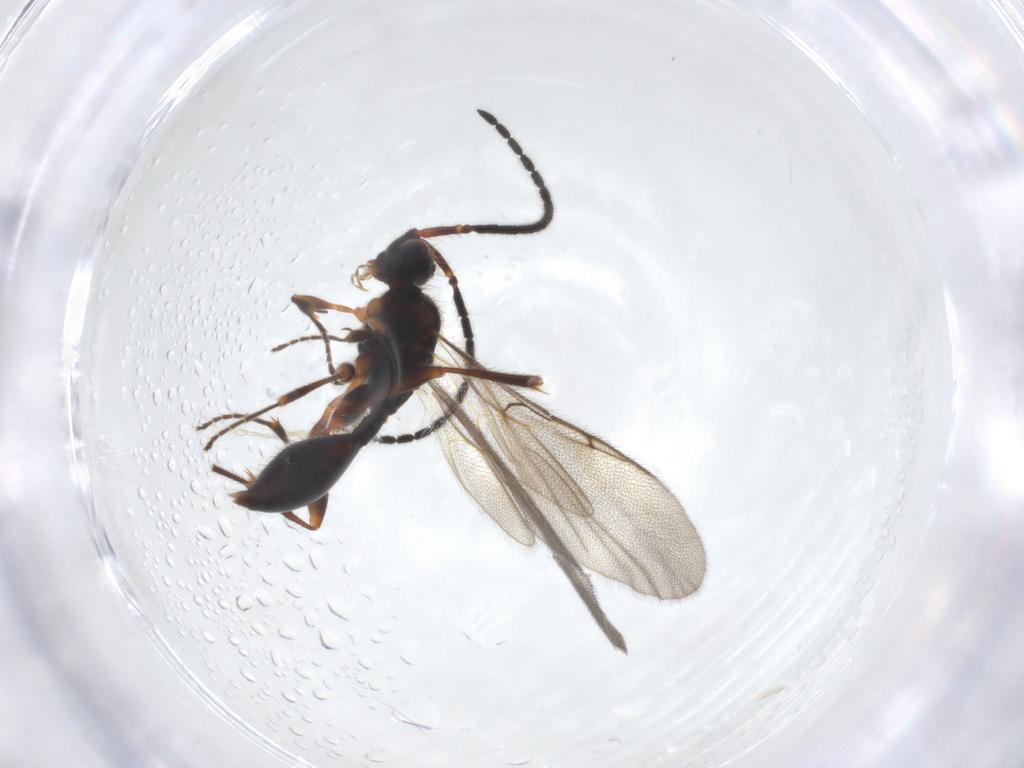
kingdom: Animalia
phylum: Arthropoda
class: Insecta
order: Hymenoptera
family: Diapriidae
